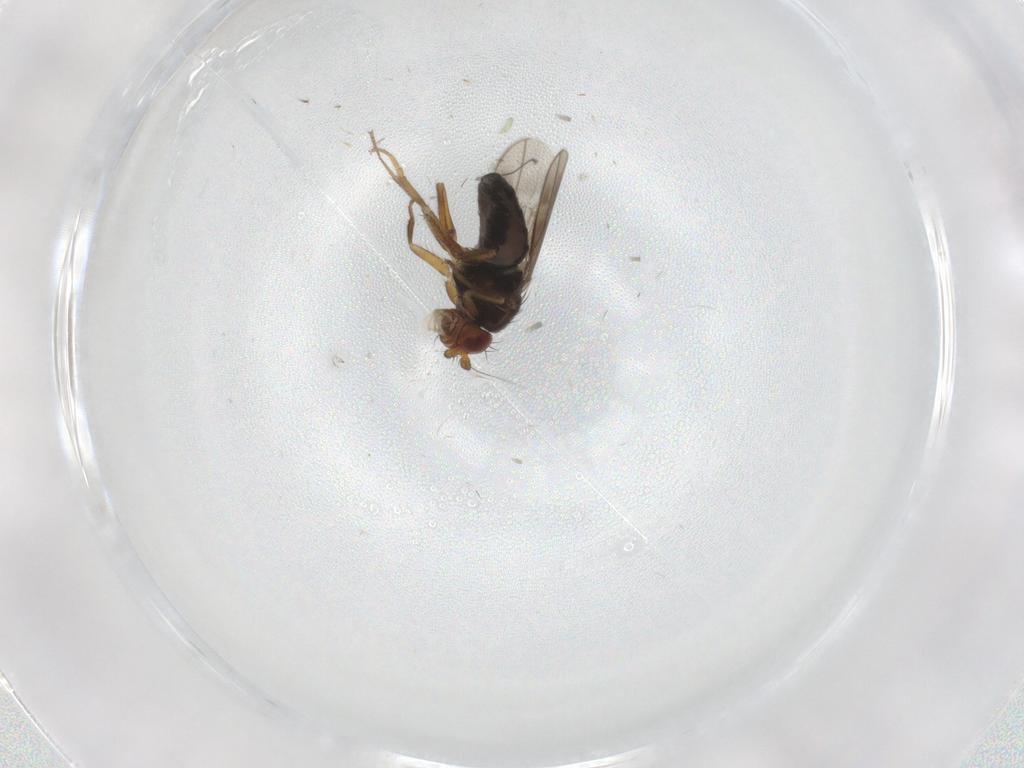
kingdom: Animalia
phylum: Arthropoda
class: Insecta
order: Diptera
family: Sphaeroceridae
